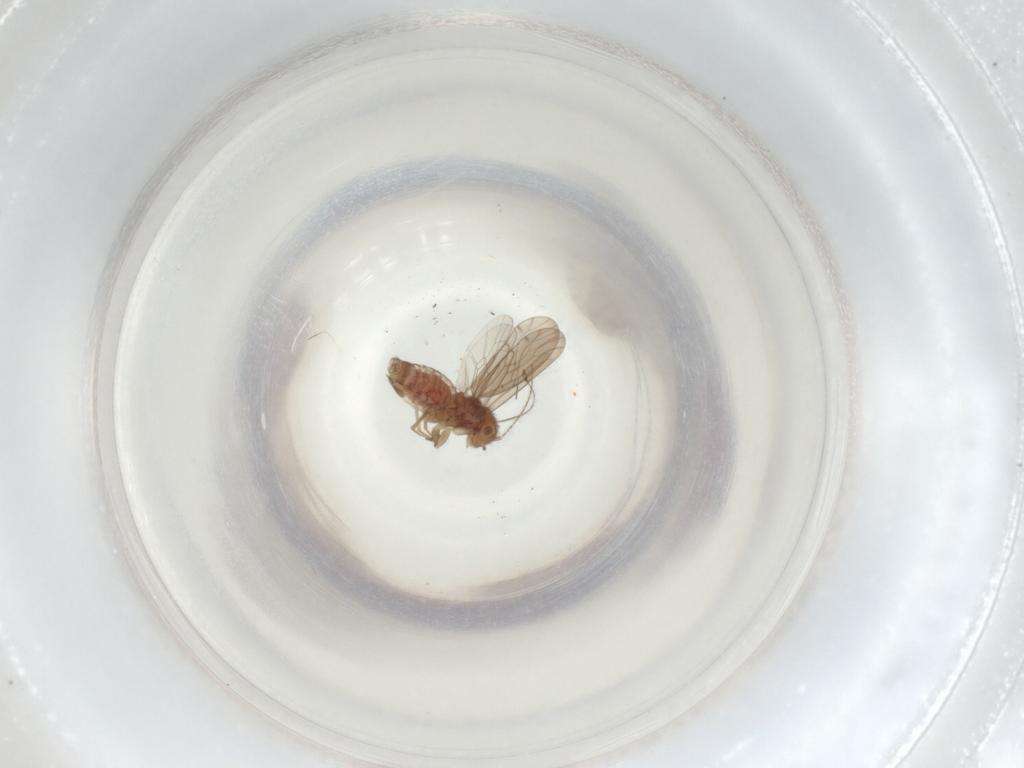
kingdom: Animalia
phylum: Arthropoda
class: Insecta
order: Psocodea
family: Ectopsocidae
